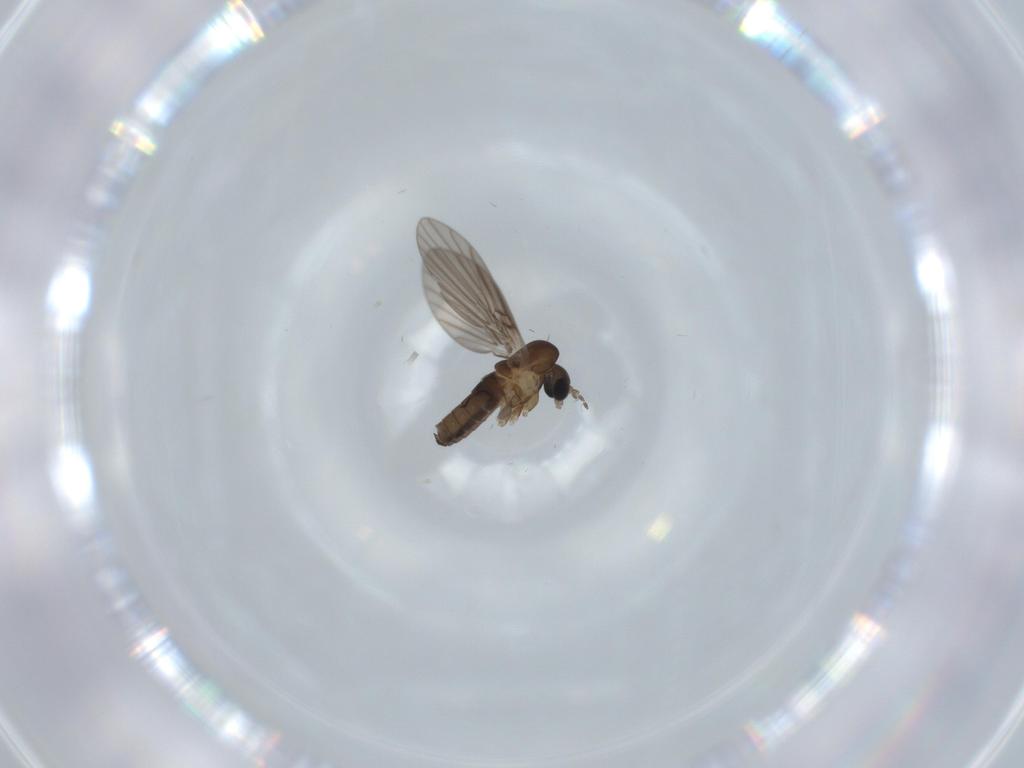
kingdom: Animalia
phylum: Arthropoda
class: Insecta
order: Diptera
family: Psychodidae
